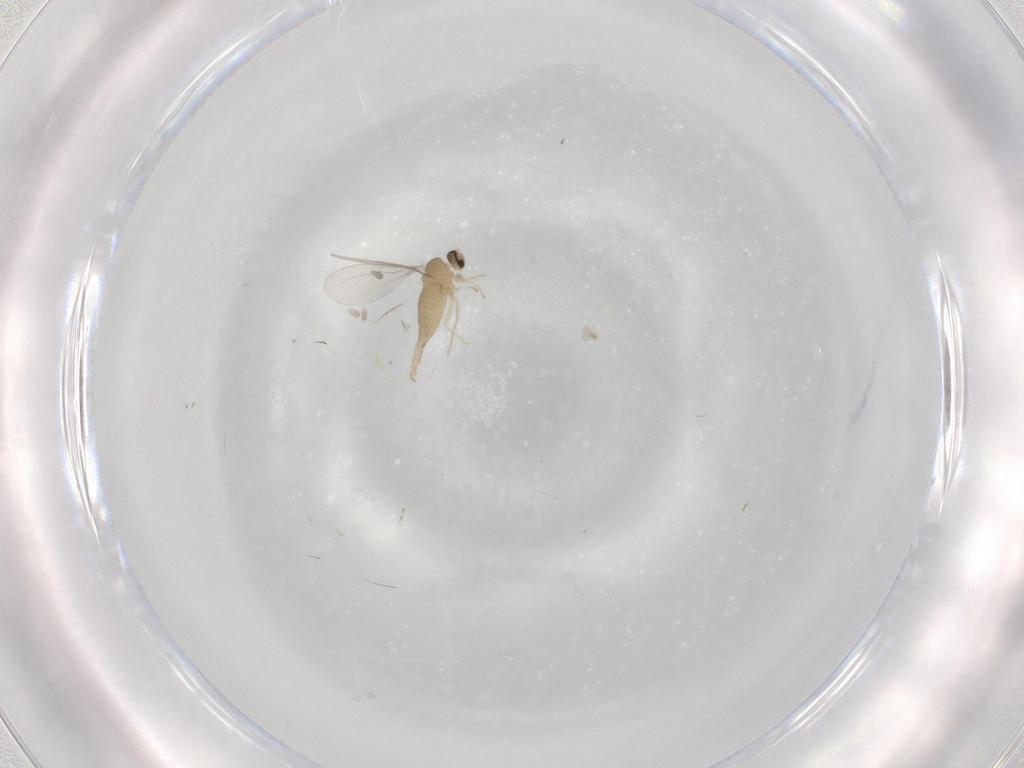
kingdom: Animalia
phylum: Arthropoda
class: Insecta
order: Diptera
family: Cecidomyiidae
